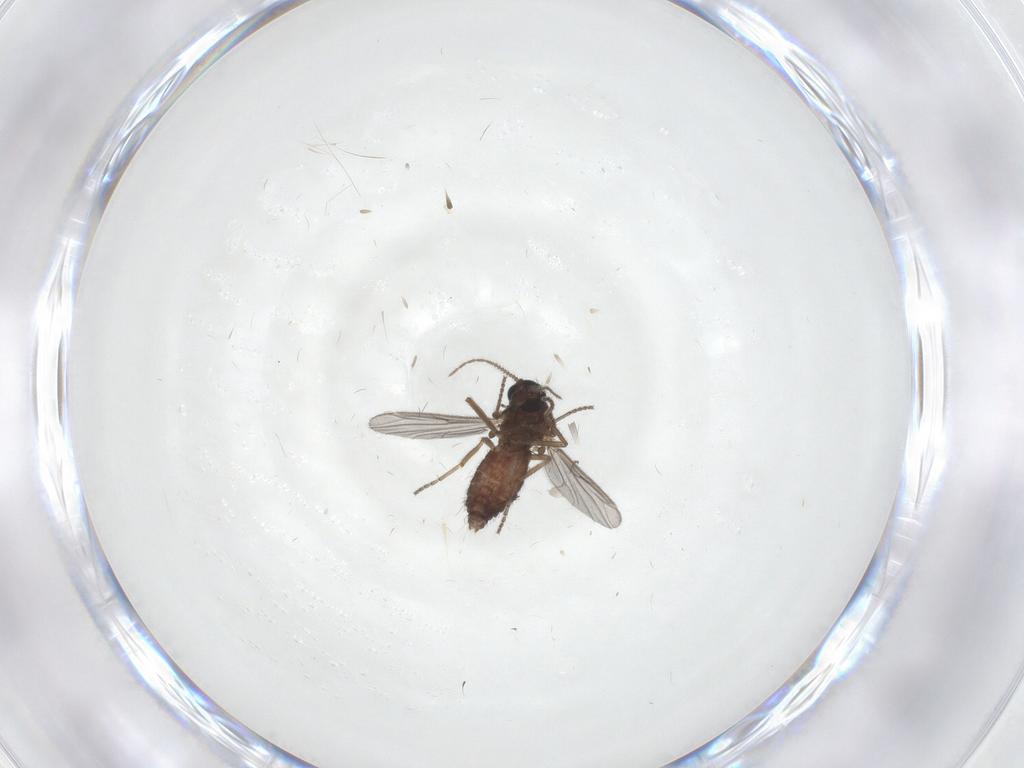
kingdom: Animalia
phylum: Arthropoda
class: Insecta
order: Diptera
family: Ceratopogonidae
